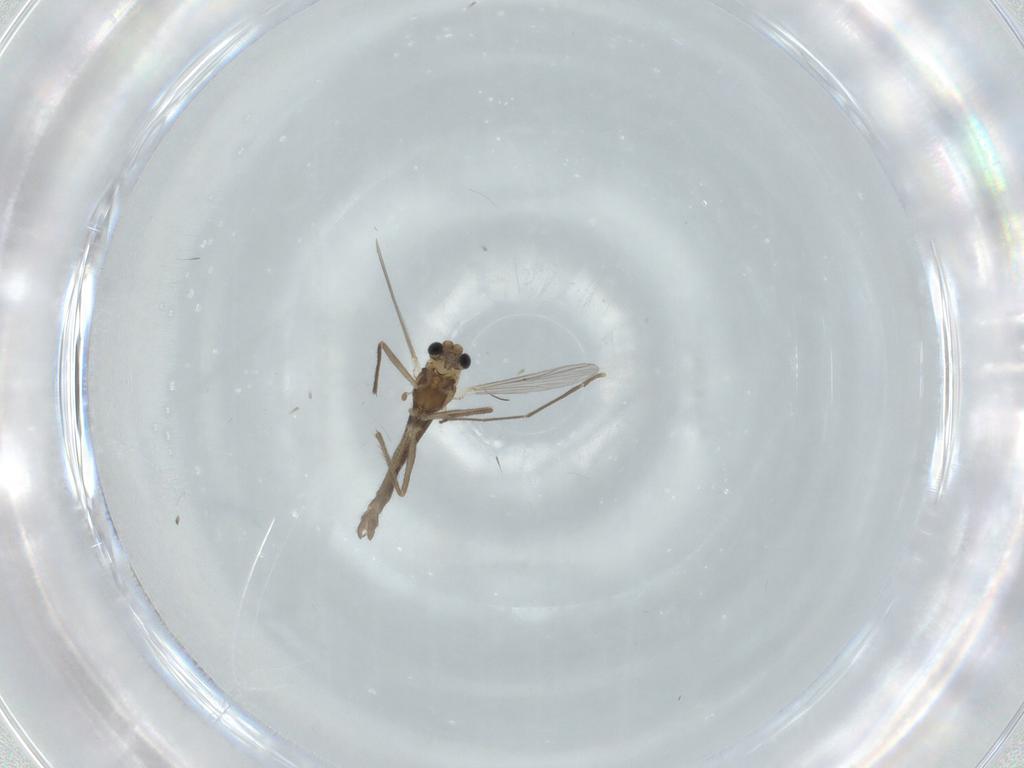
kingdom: Animalia
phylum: Arthropoda
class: Insecta
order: Diptera
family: Chironomidae
